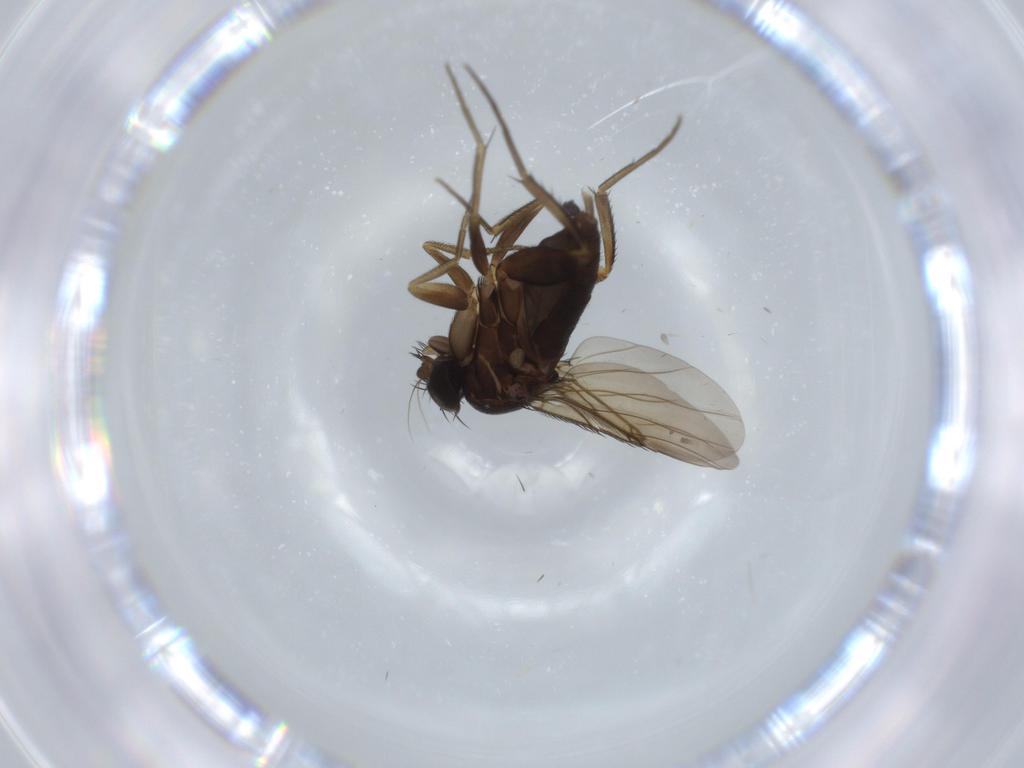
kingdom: Animalia
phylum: Arthropoda
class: Insecta
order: Diptera
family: Phoridae
